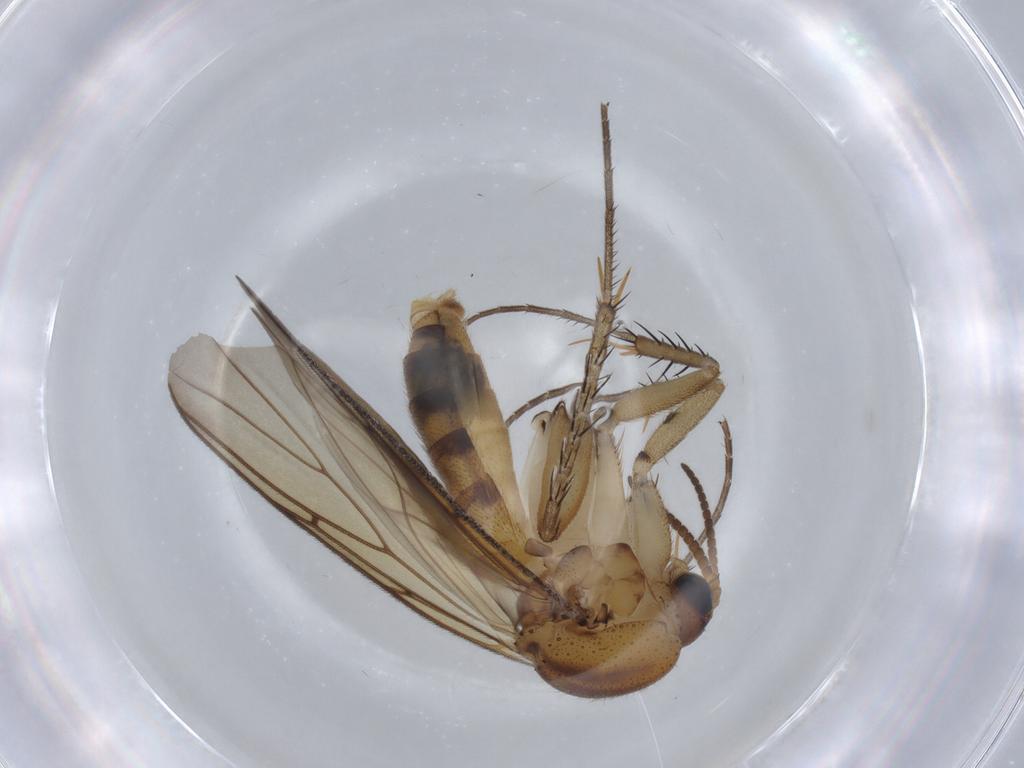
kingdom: Animalia
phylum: Arthropoda
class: Insecta
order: Diptera
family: Mycetophilidae
